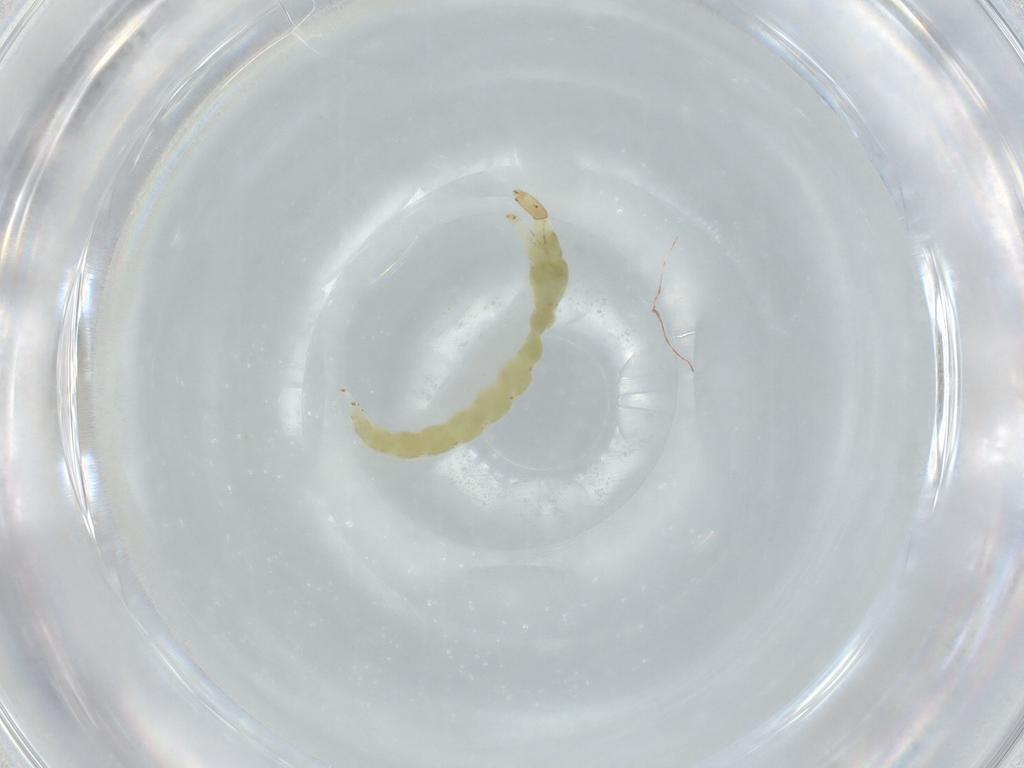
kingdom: Animalia
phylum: Arthropoda
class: Insecta
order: Diptera
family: Chironomidae
